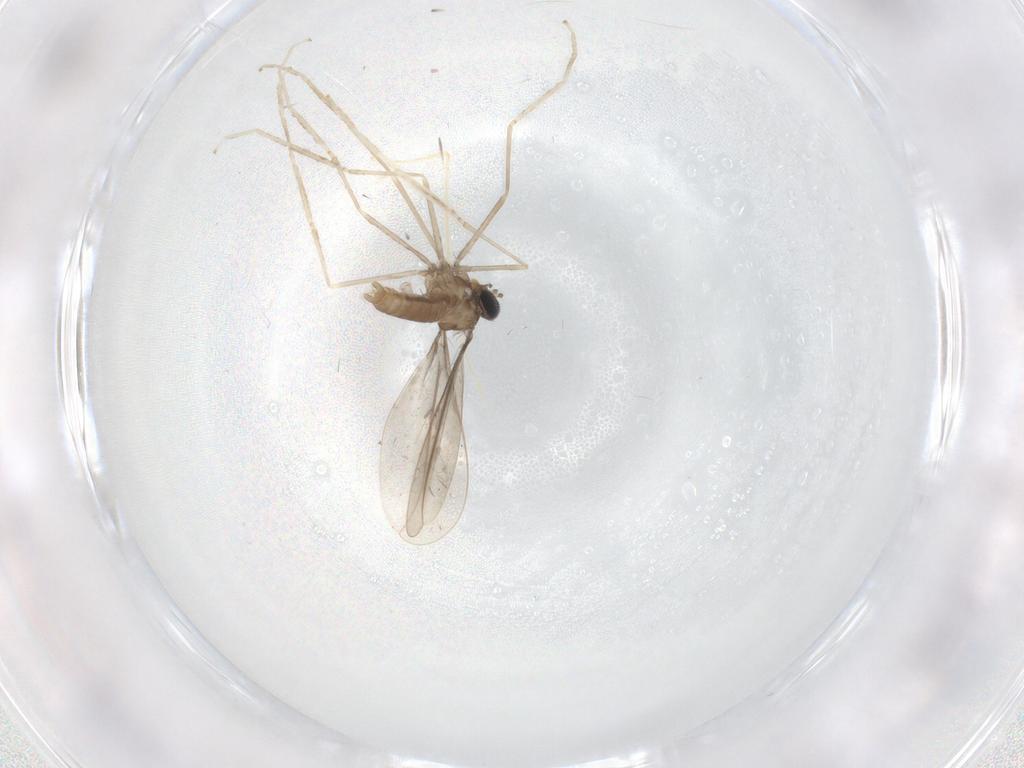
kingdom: Animalia
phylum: Arthropoda
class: Insecta
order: Diptera
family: Cecidomyiidae
